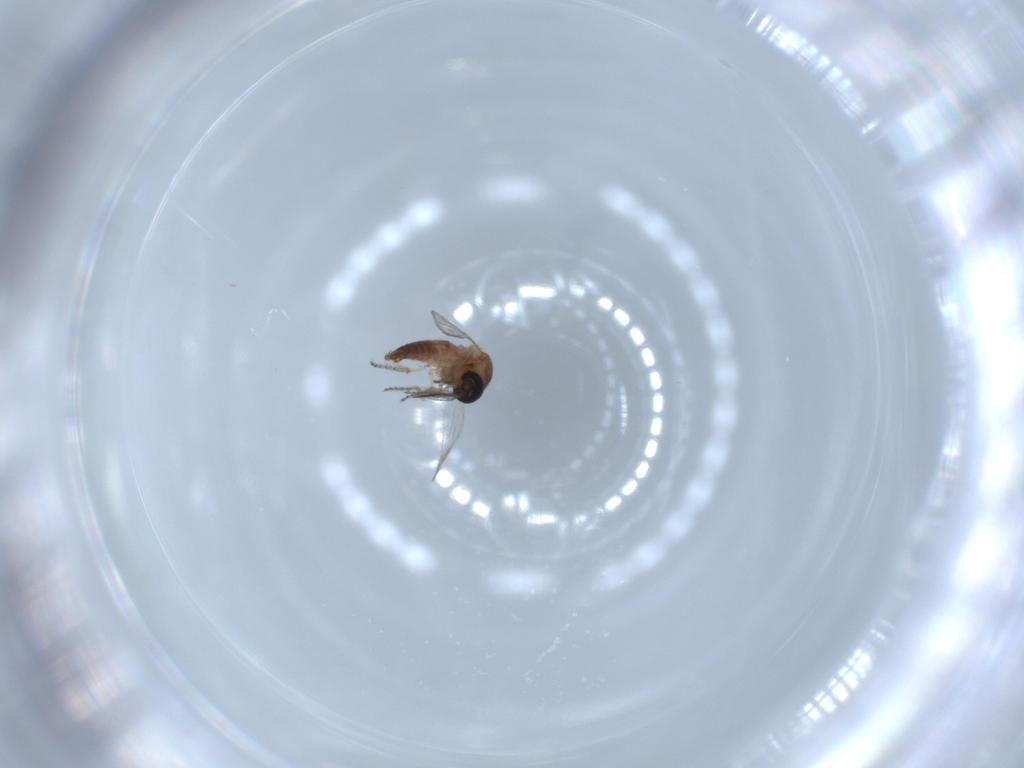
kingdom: Animalia
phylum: Arthropoda
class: Insecta
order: Diptera
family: Ceratopogonidae
